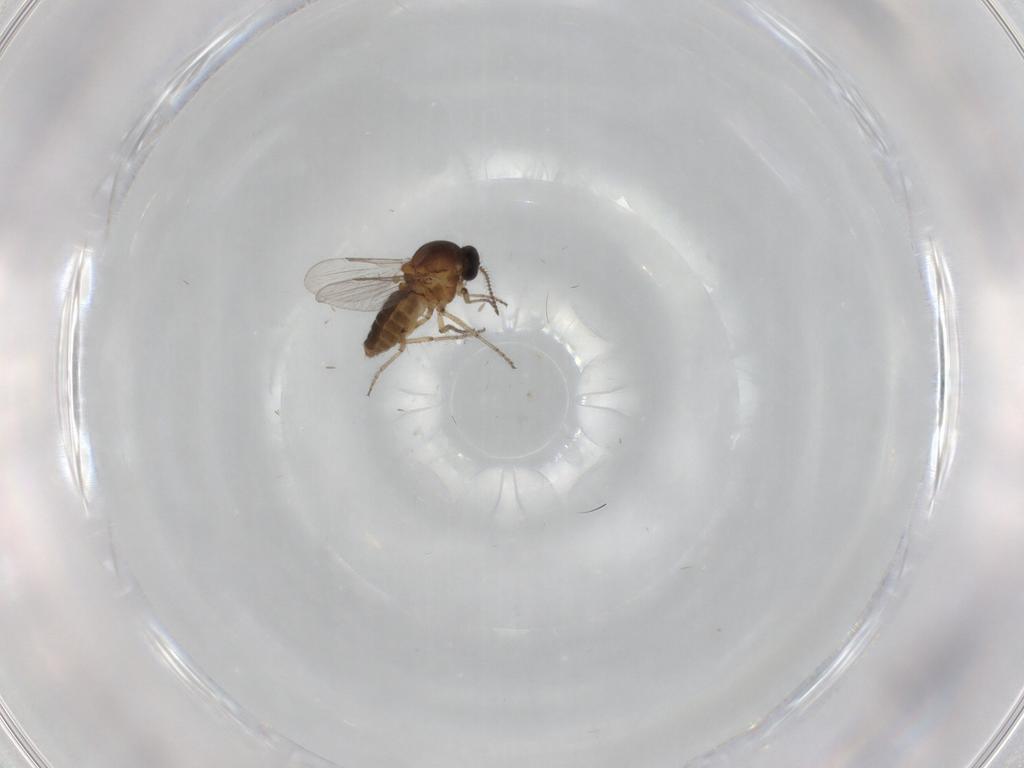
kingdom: Animalia
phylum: Arthropoda
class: Insecta
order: Diptera
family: Ceratopogonidae
